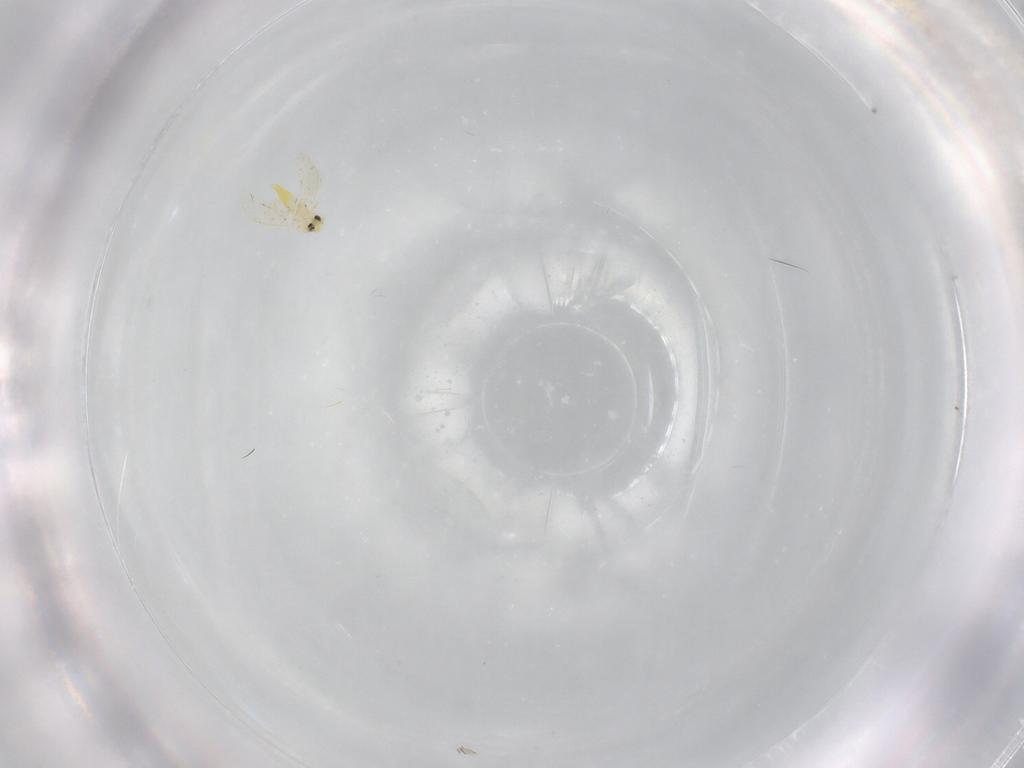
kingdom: Animalia
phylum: Arthropoda
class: Insecta
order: Hemiptera
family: Aleyrodidae
